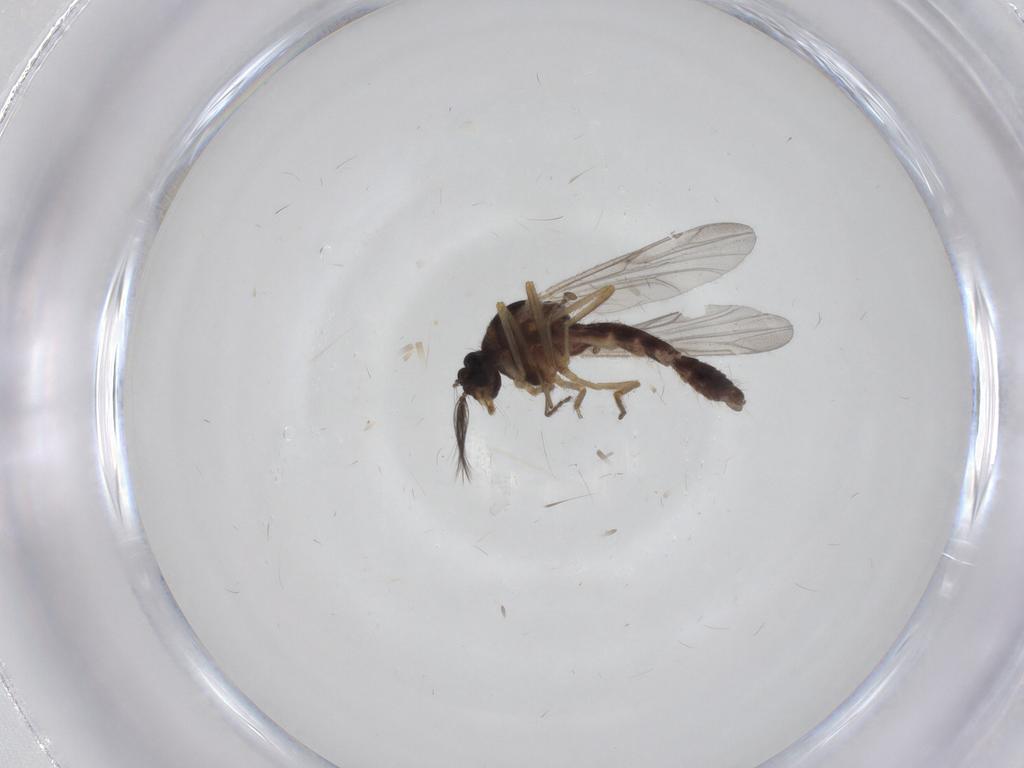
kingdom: Animalia
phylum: Arthropoda
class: Insecta
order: Diptera
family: Ceratopogonidae
